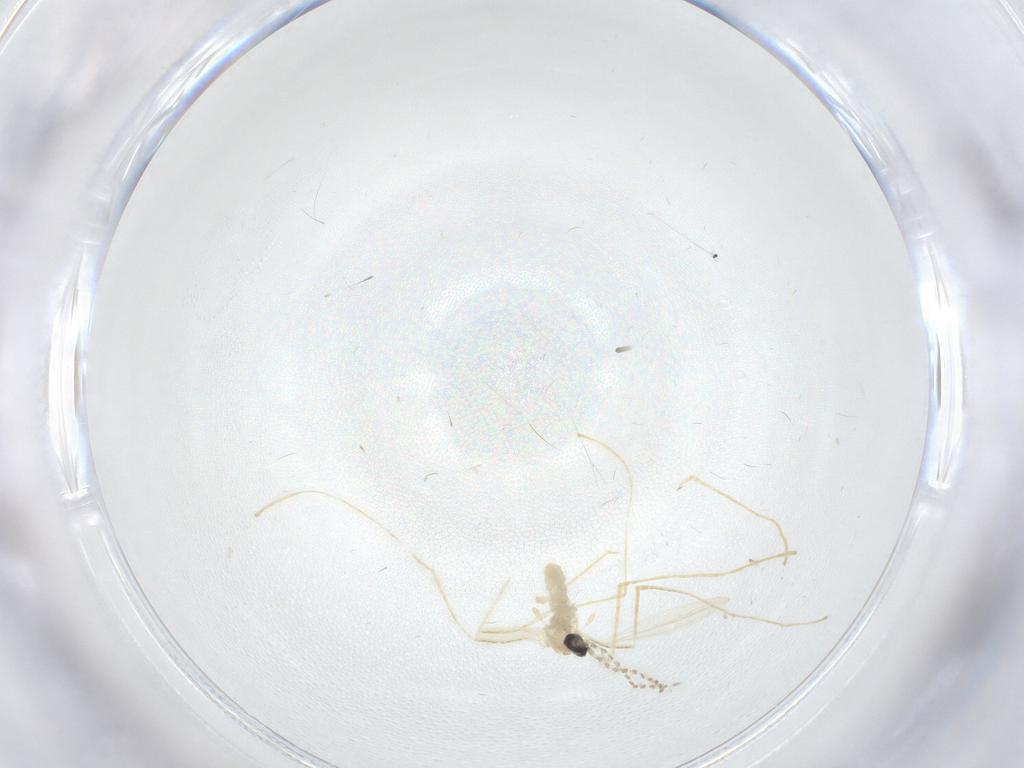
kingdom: Animalia
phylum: Arthropoda
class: Insecta
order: Diptera
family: Cecidomyiidae
